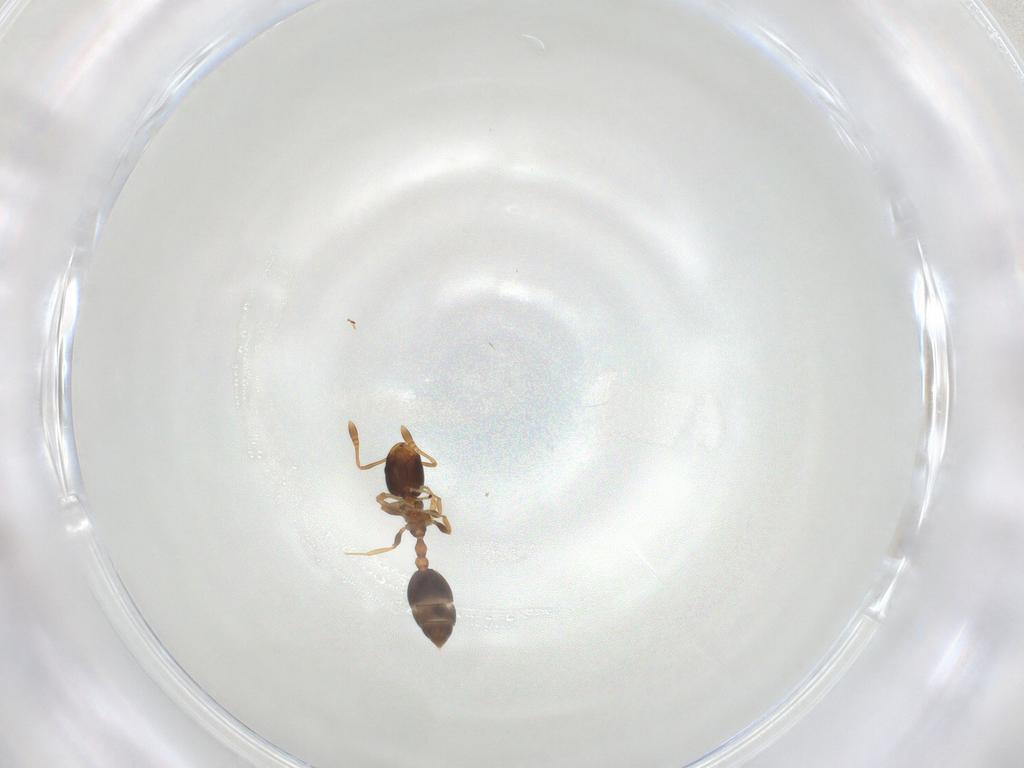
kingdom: Animalia
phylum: Arthropoda
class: Insecta
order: Hymenoptera
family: Formicidae
